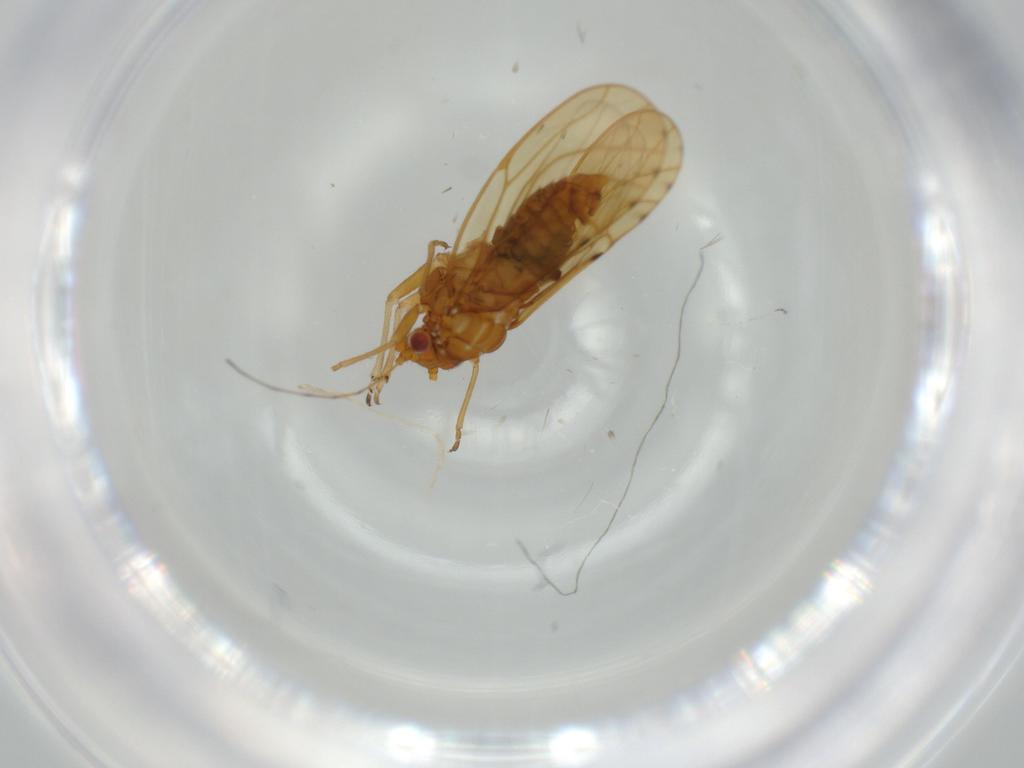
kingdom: Animalia
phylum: Arthropoda
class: Insecta
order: Hemiptera
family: Psylloidea_incertae_sedis
